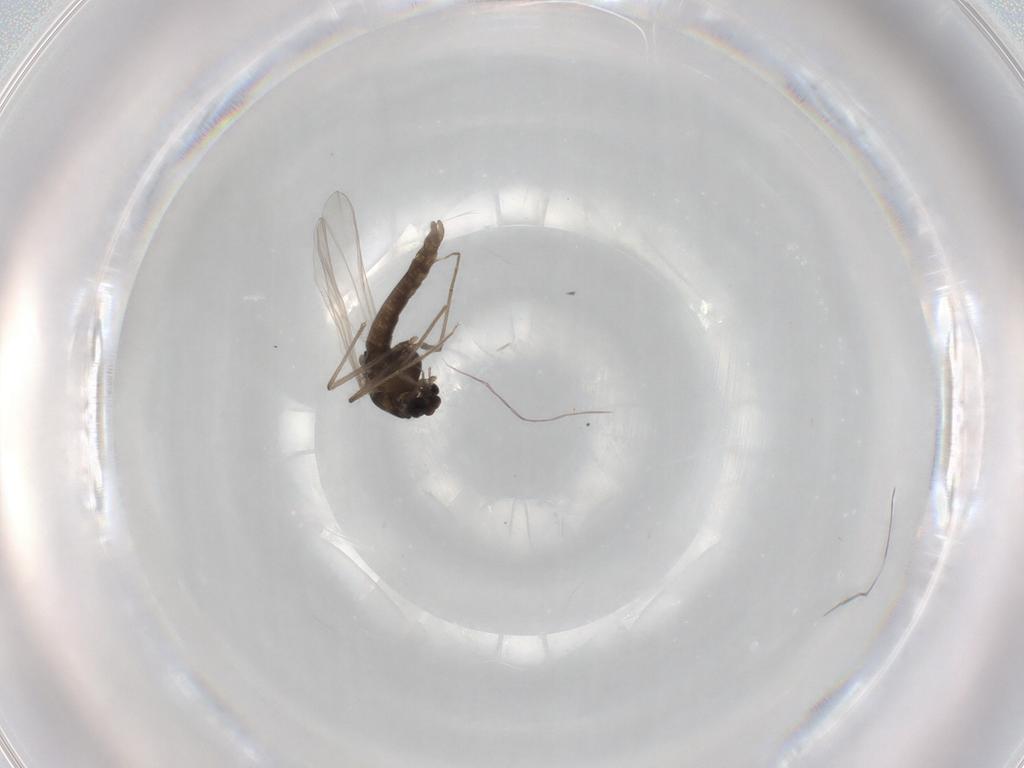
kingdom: Animalia
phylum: Arthropoda
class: Insecta
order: Diptera
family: Chironomidae
